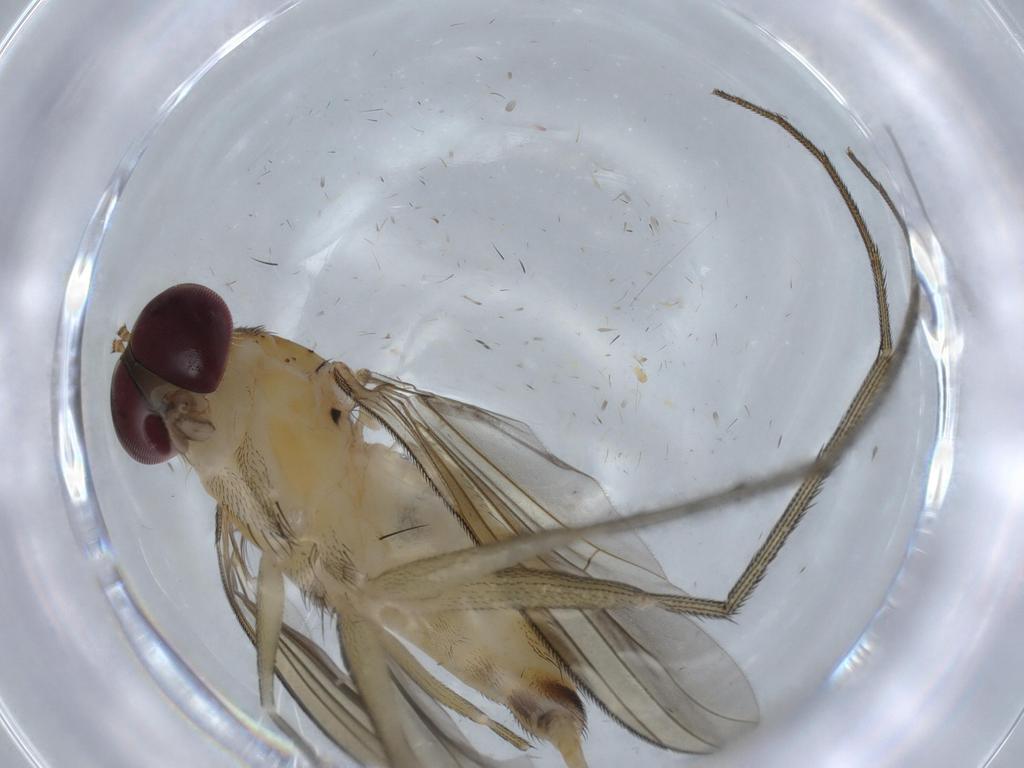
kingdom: Animalia
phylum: Arthropoda
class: Insecta
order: Diptera
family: Dolichopodidae
